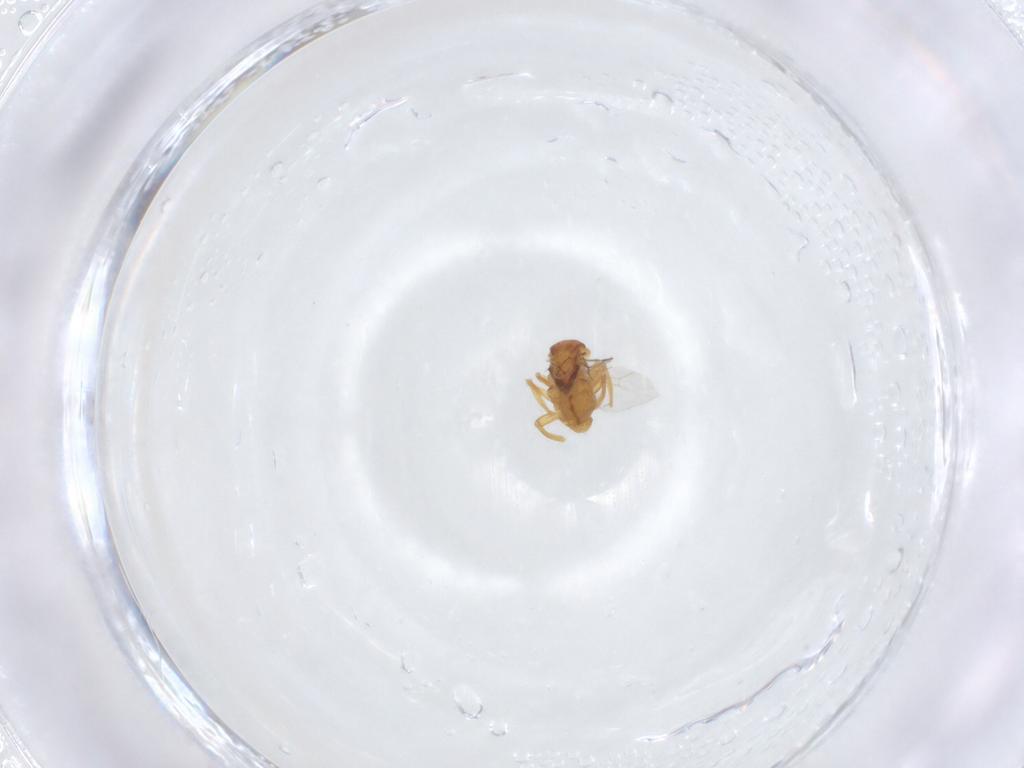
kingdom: Animalia
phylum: Arthropoda
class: Insecta
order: Diptera
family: Chloropidae
